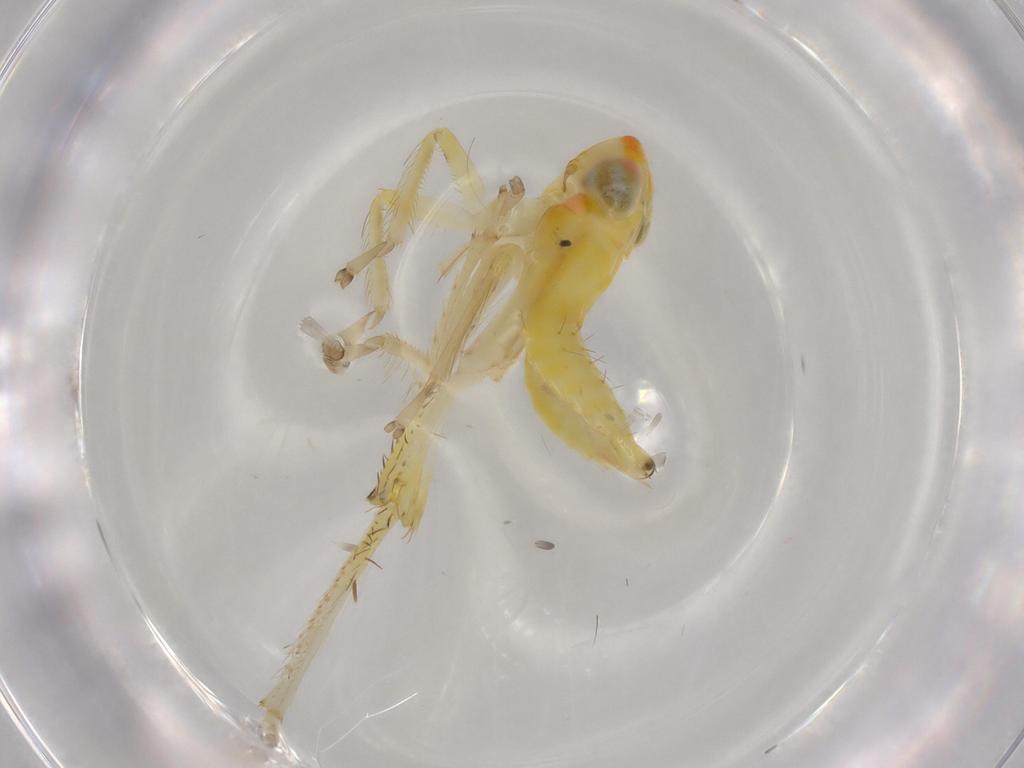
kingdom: Animalia
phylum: Arthropoda
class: Insecta
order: Hemiptera
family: Cicadellidae
